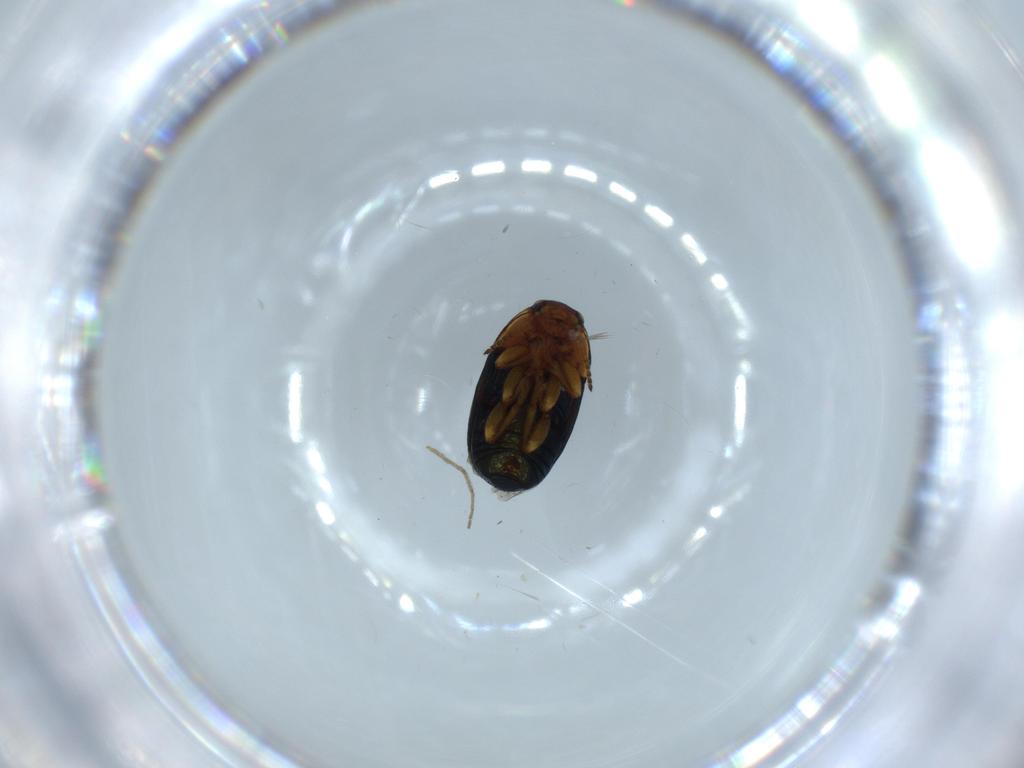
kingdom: Animalia
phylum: Arthropoda
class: Insecta
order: Coleoptera
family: Chrysomelidae
